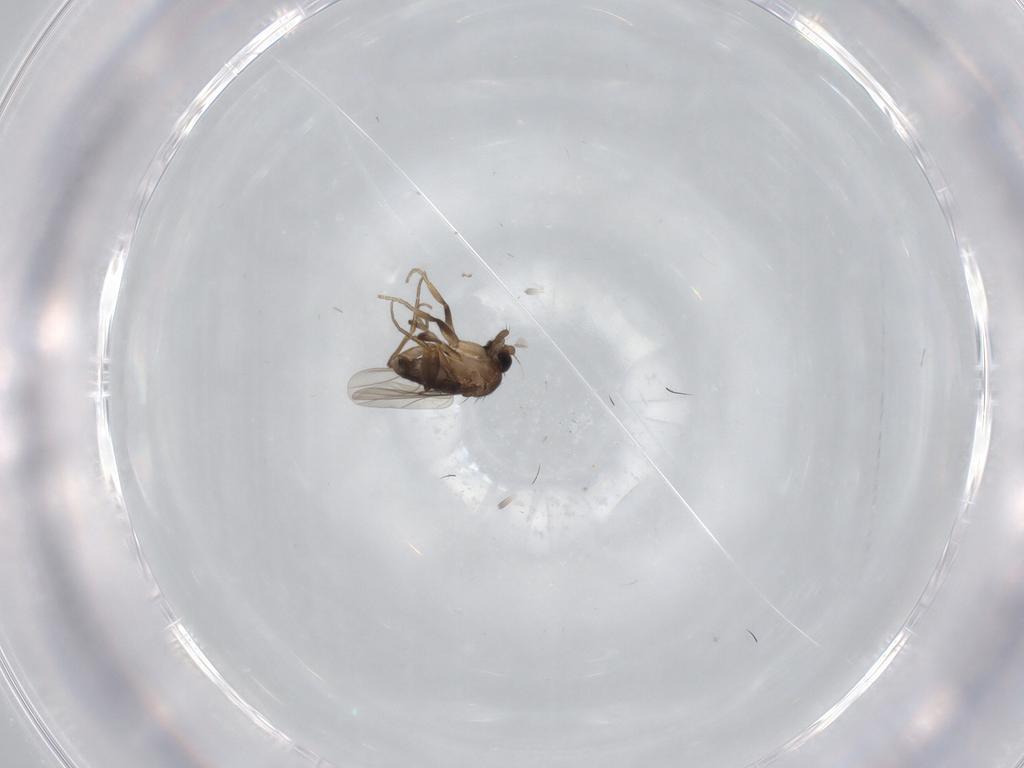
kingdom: Animalia
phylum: Arthropoda
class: Insecta
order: Diptera
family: Phoridae
